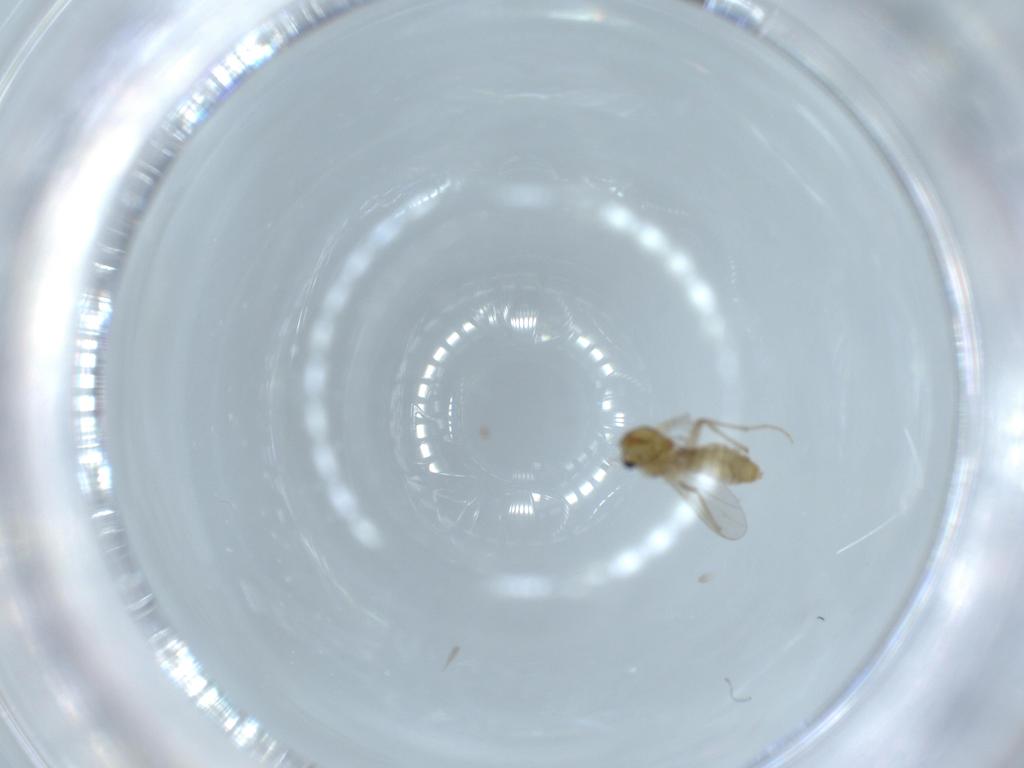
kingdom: Animalia
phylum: Arthropoda
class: Insecta
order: Diptera
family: Chironomidae
